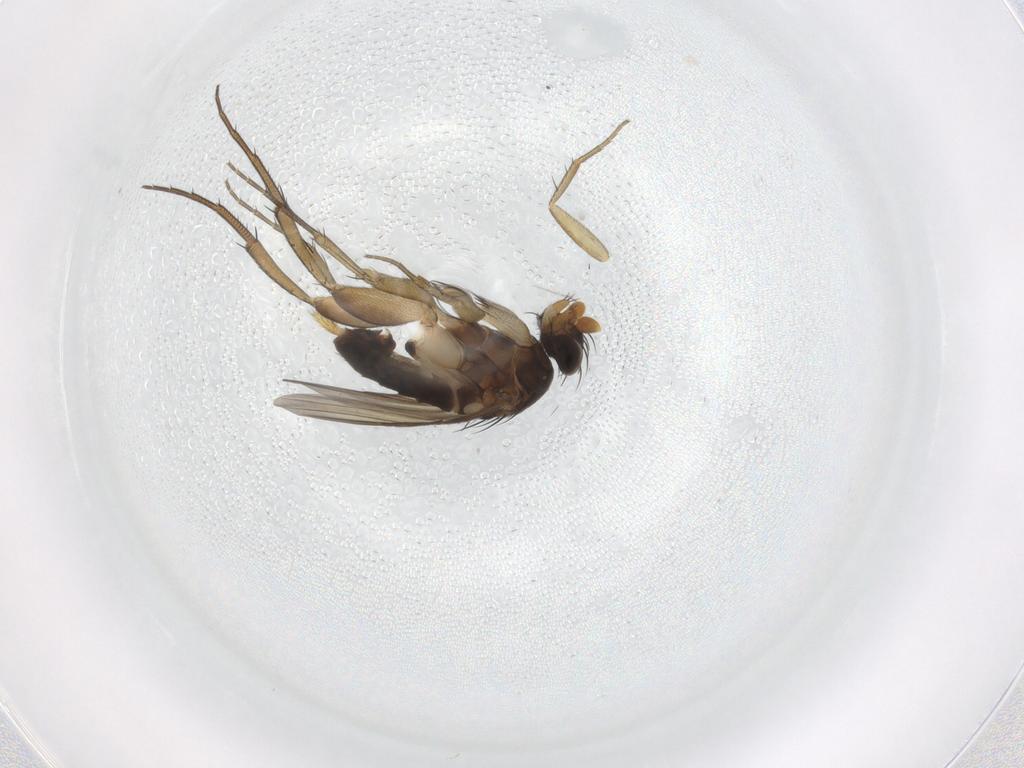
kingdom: Animalia
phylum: Arthropoda
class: Insecta
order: Diptera
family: Phoridae
